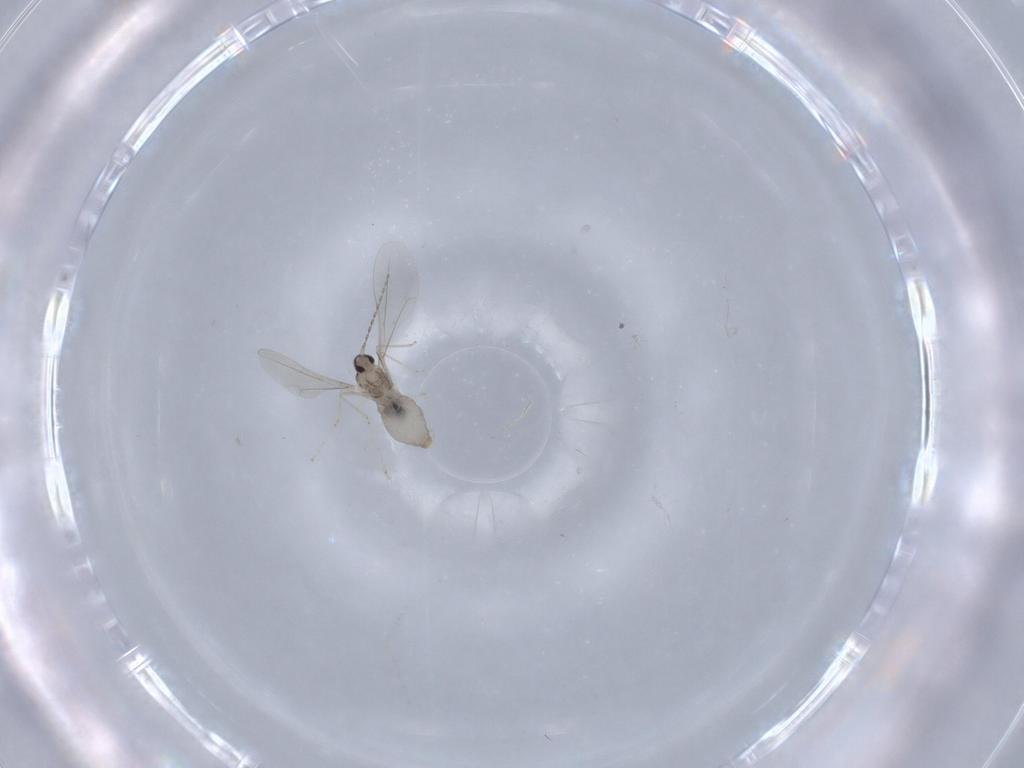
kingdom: Animalia
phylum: Arthropoda
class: Insecta
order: Diptera
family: Cecidomyiidae
